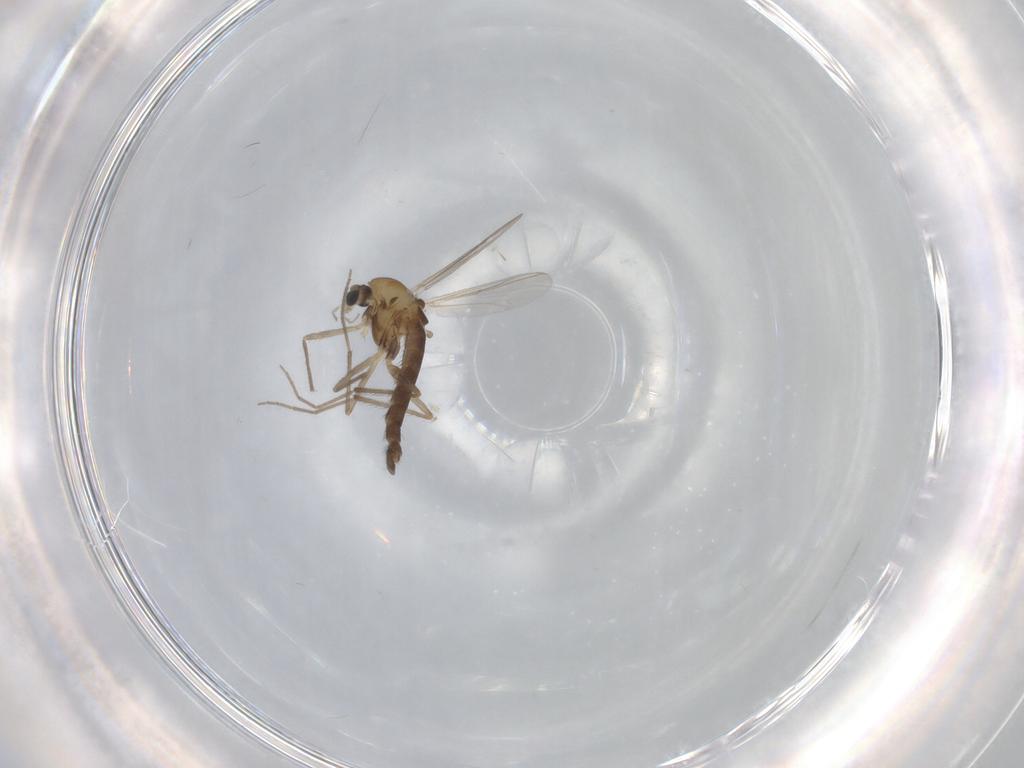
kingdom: Animalia
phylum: Arthropoda
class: Insecta
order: Diptera
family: Chironomidae
